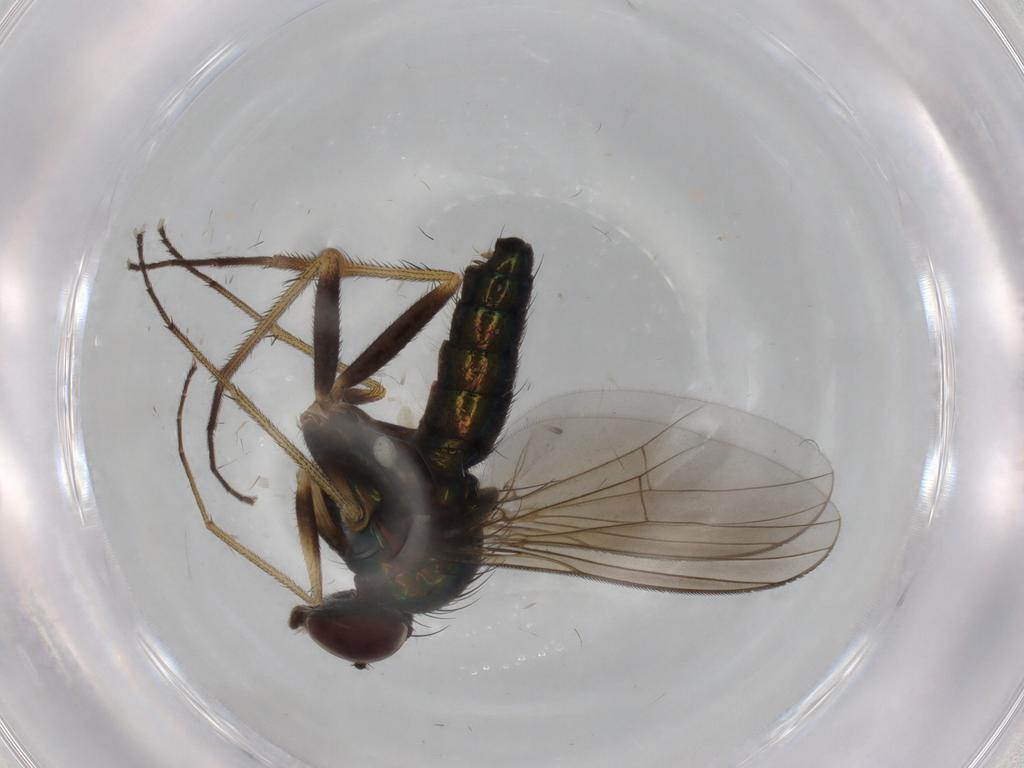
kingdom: Animalia
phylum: Arthropoda
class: Insecta
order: Diptera
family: Dolichopodidae
